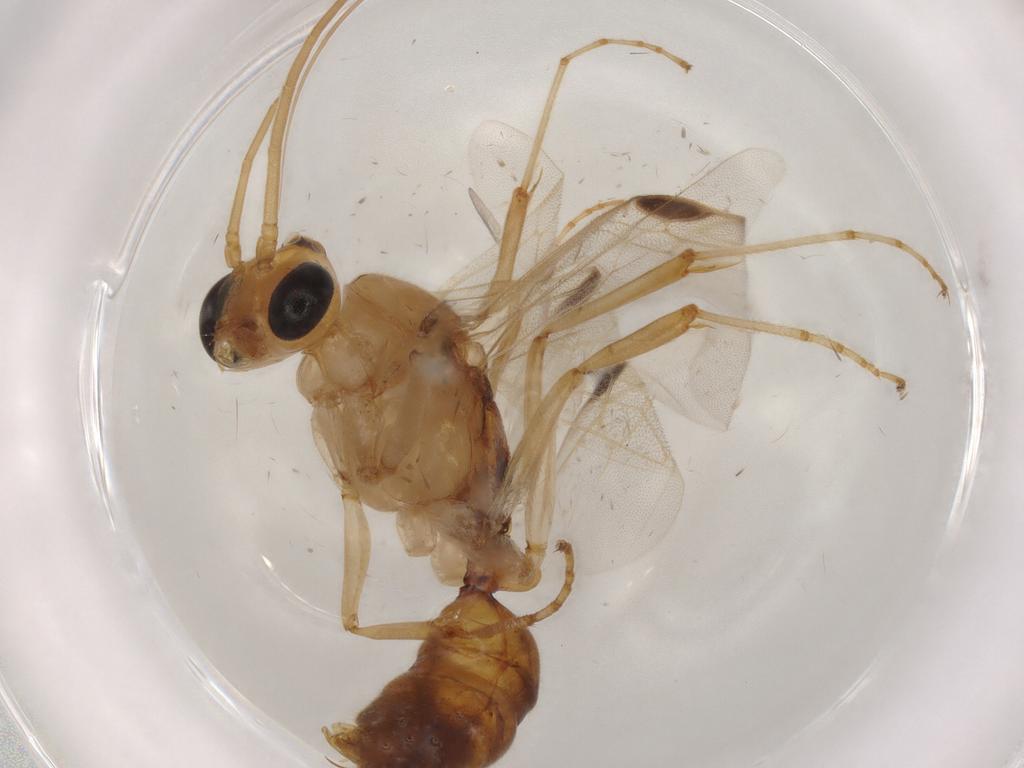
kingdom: Animalia
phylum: Arthropoda
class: Insecta
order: Hymenoptera
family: Formicidae
